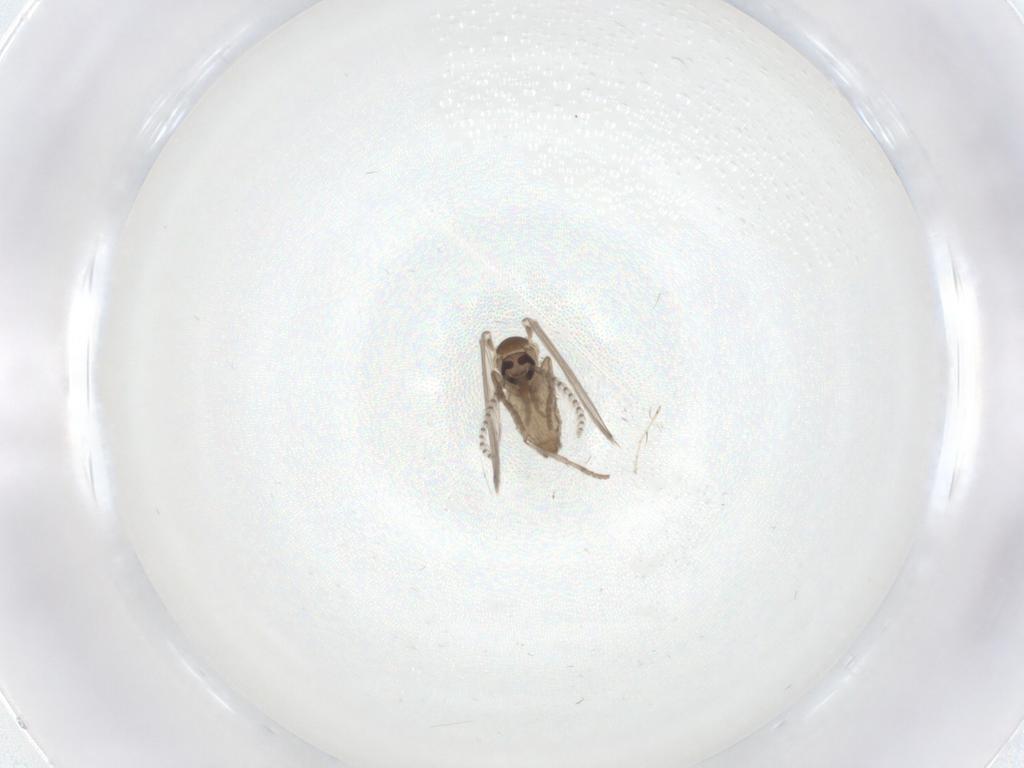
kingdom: Animalia
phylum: Arthropoda
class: Insecta
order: Diptera
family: Psychodidae
